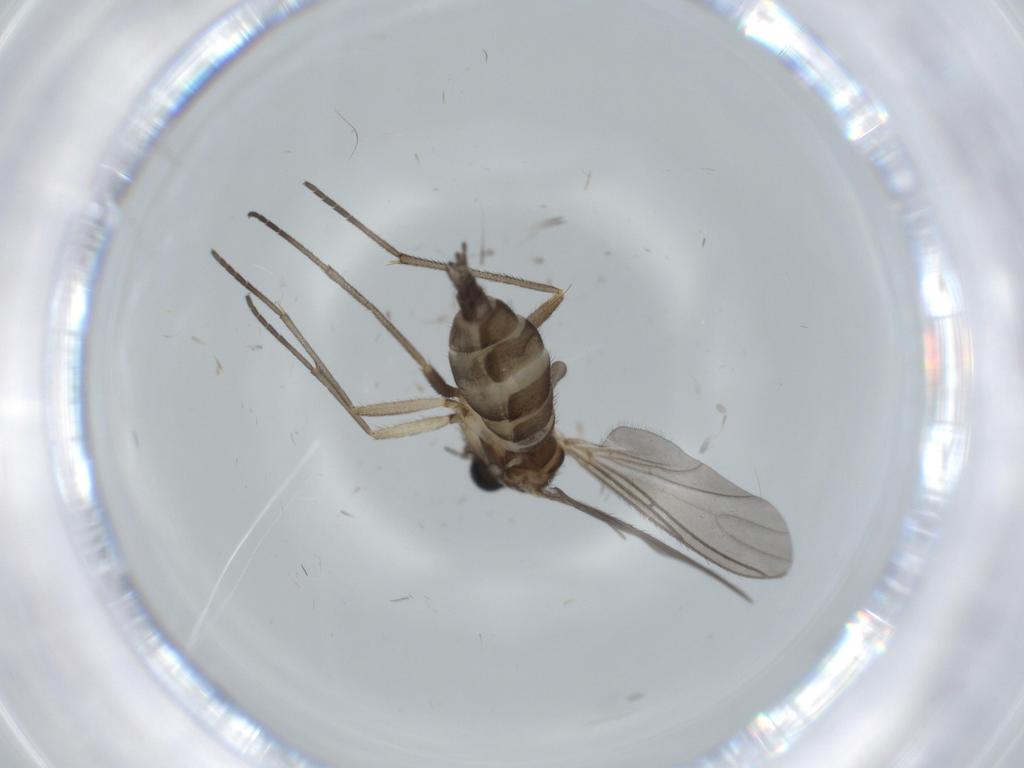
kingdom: Animalia
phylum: Arthropoda
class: Insecta
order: Diptera
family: Sciaridae
